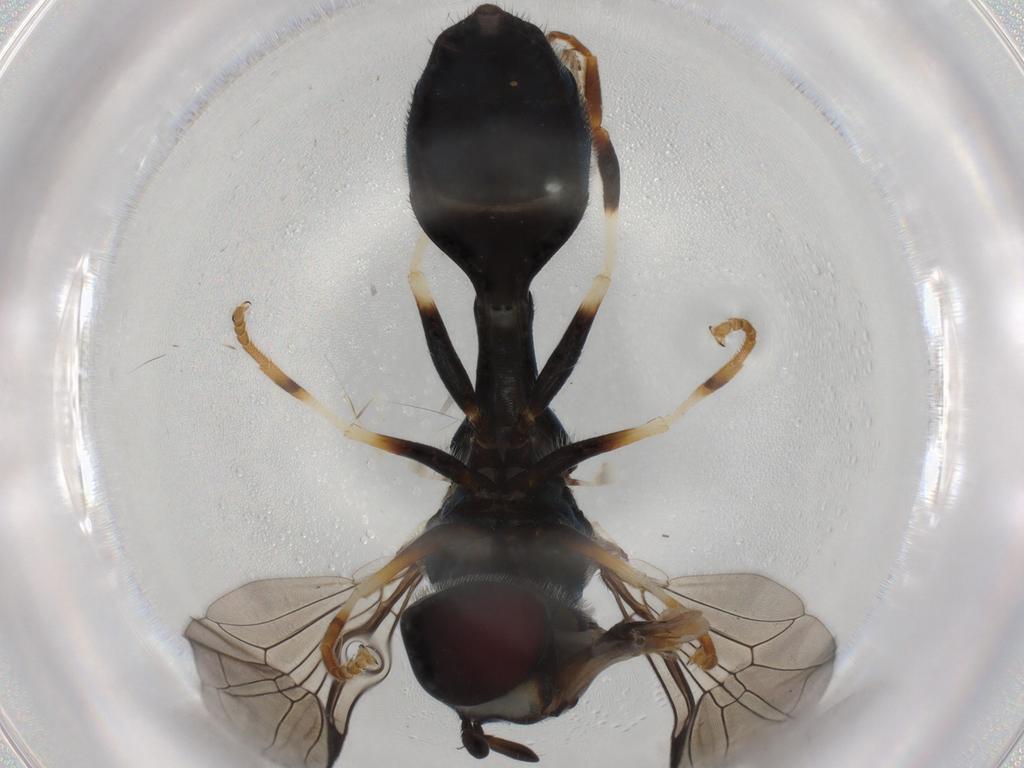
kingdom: Animalia
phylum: Arthropoda
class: Insecta
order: Diptera
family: Syrphidae
